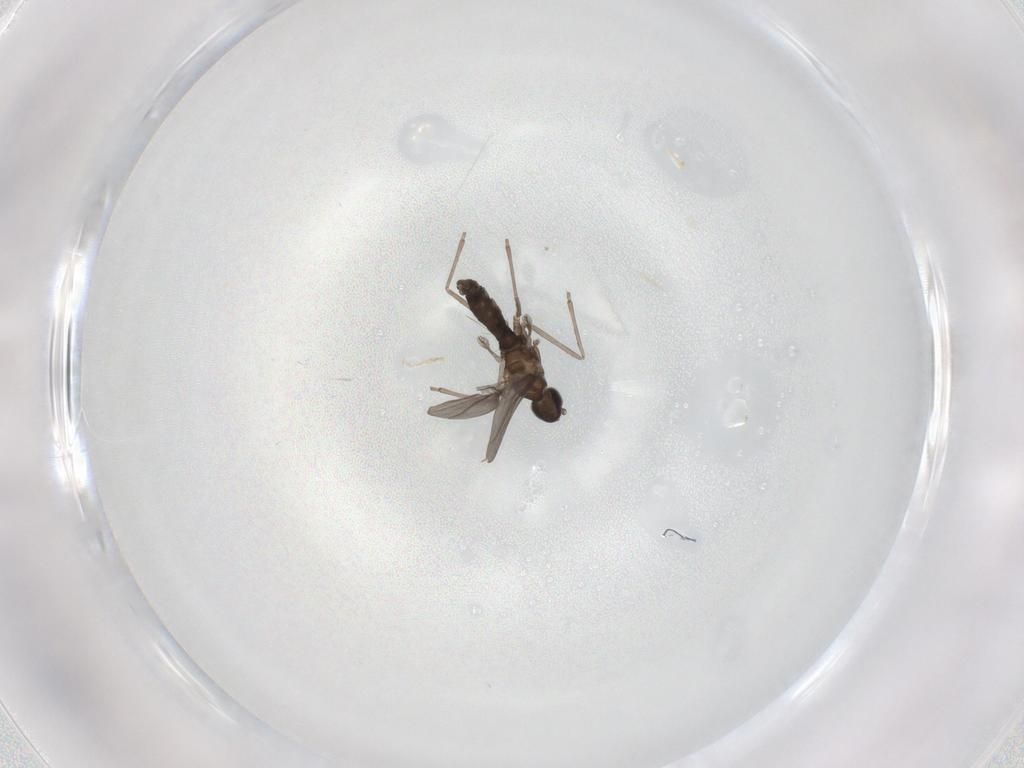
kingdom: Animalia
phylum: Arthropoda
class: Insecta
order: Diptera
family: Cecidomyiidae
